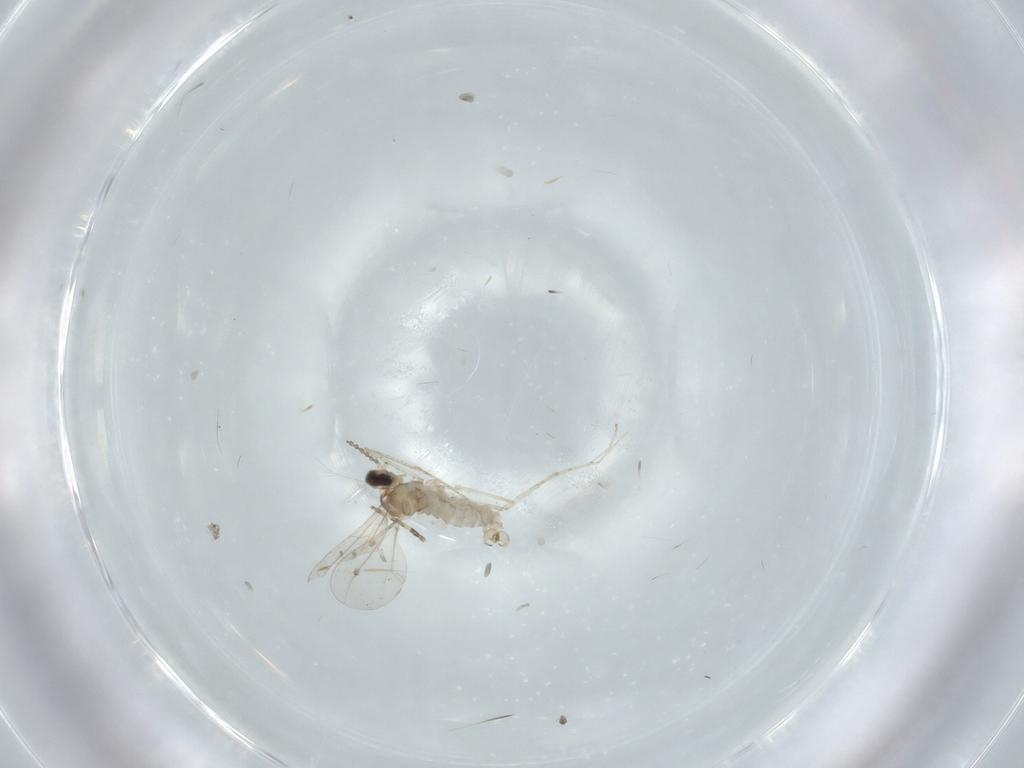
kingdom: Animalia
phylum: Arthropoda
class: Insecta
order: Diptera
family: Cecidomyiidae
